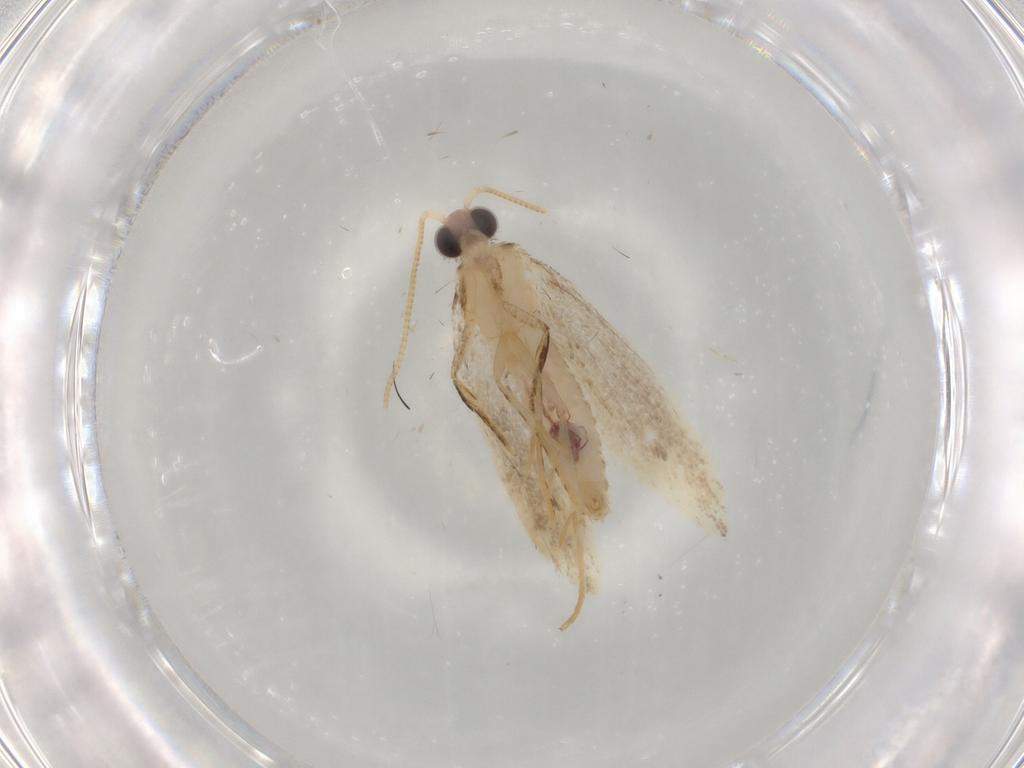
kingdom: Animalia
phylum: Arthropoda
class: Insecta
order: Lepidoptera
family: Nepticulidae
